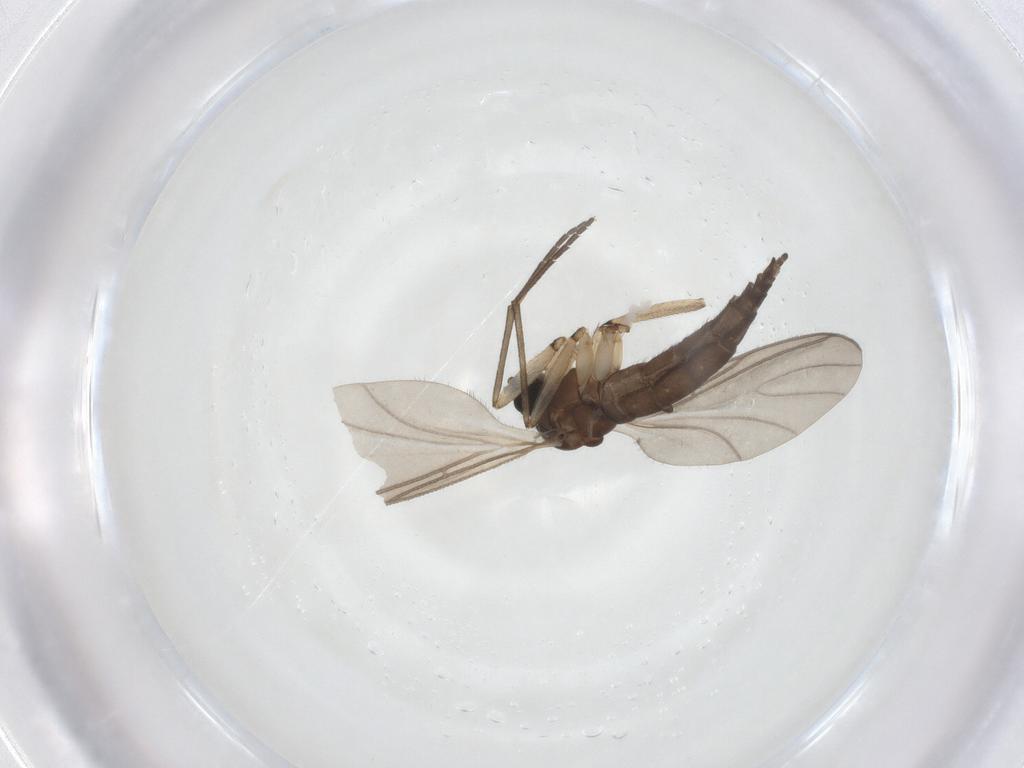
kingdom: Animalia
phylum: Arthropoda
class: Insecta
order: Diptera
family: Sciaridae
